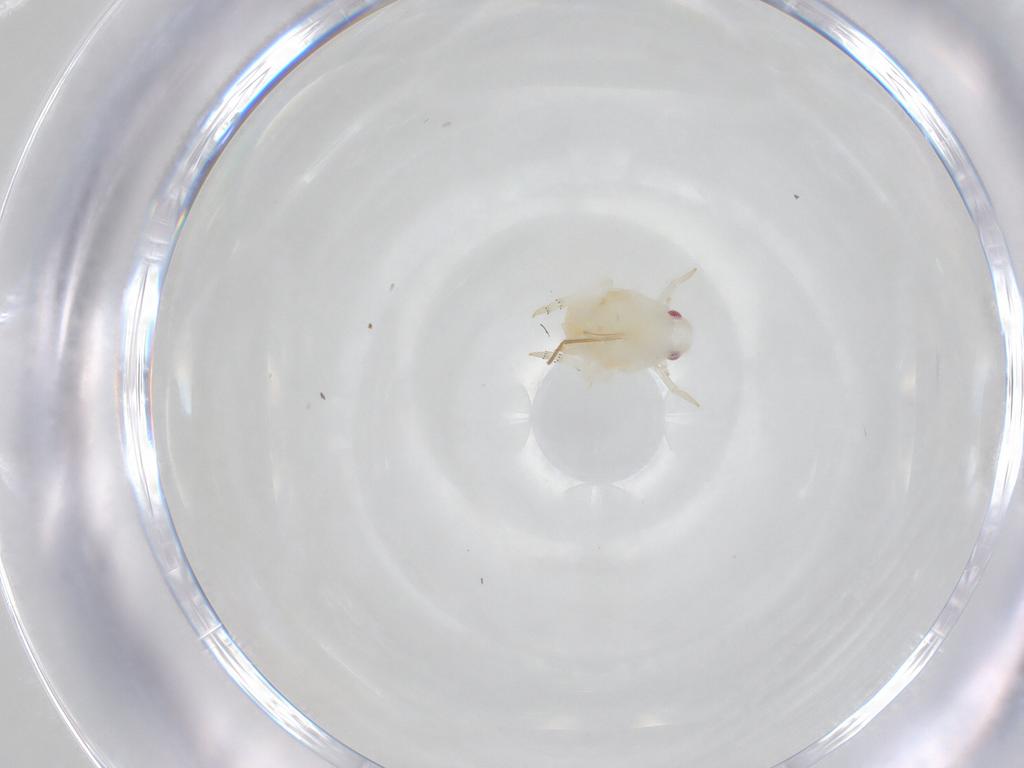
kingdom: Animalia
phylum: Arthropoda
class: Insecta
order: Hemiptera
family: Flatidae
